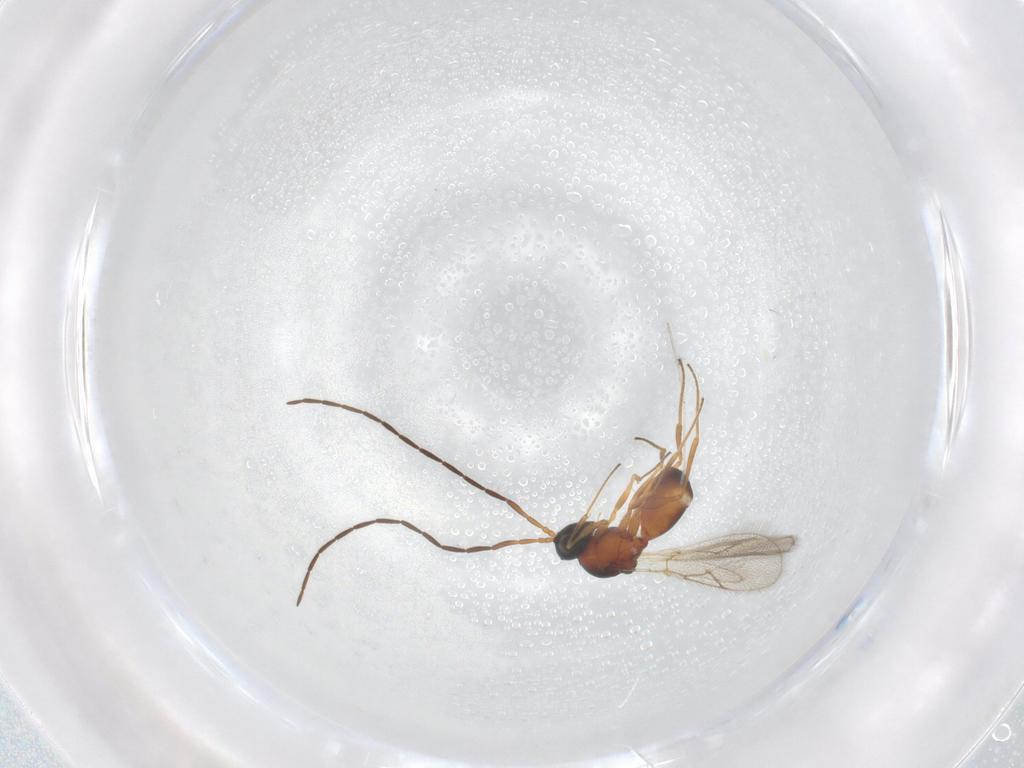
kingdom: Animalia
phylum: Arthropoda
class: Insecta
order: Hymenoptera
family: Figitidae
